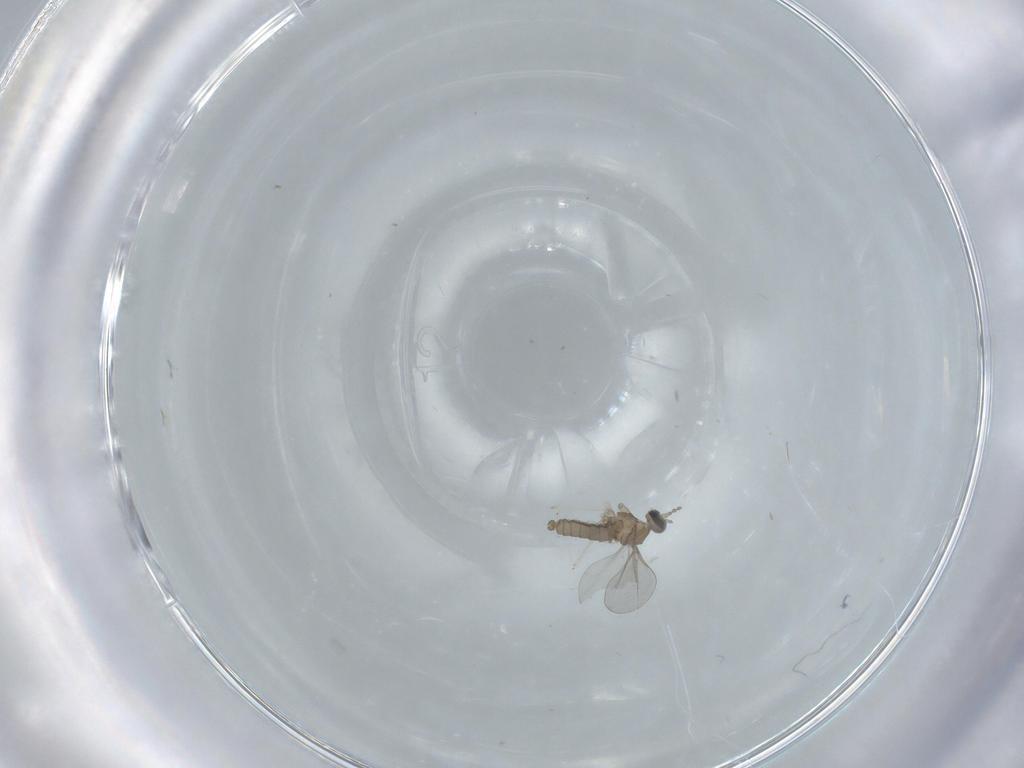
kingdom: Animalia
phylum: Arthropoda
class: Insecta
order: Diptera
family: Cecidomyiidae
